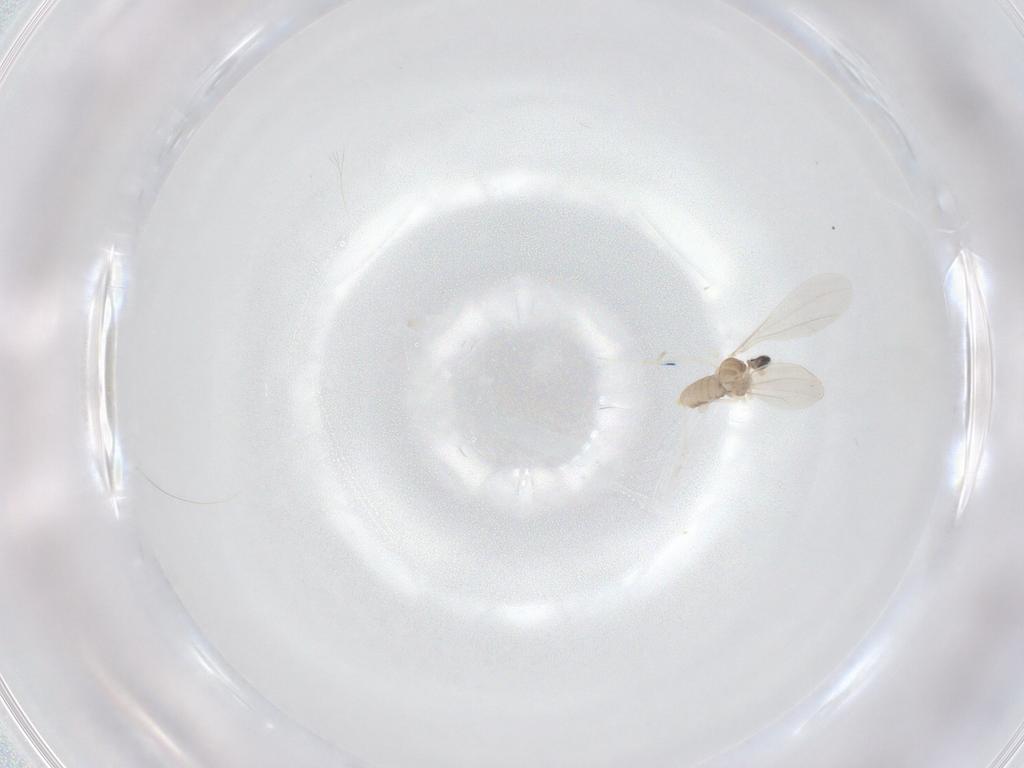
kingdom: Animalia
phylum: Arthropoda
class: Insecta
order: Diptera
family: Cecidomyiidae
